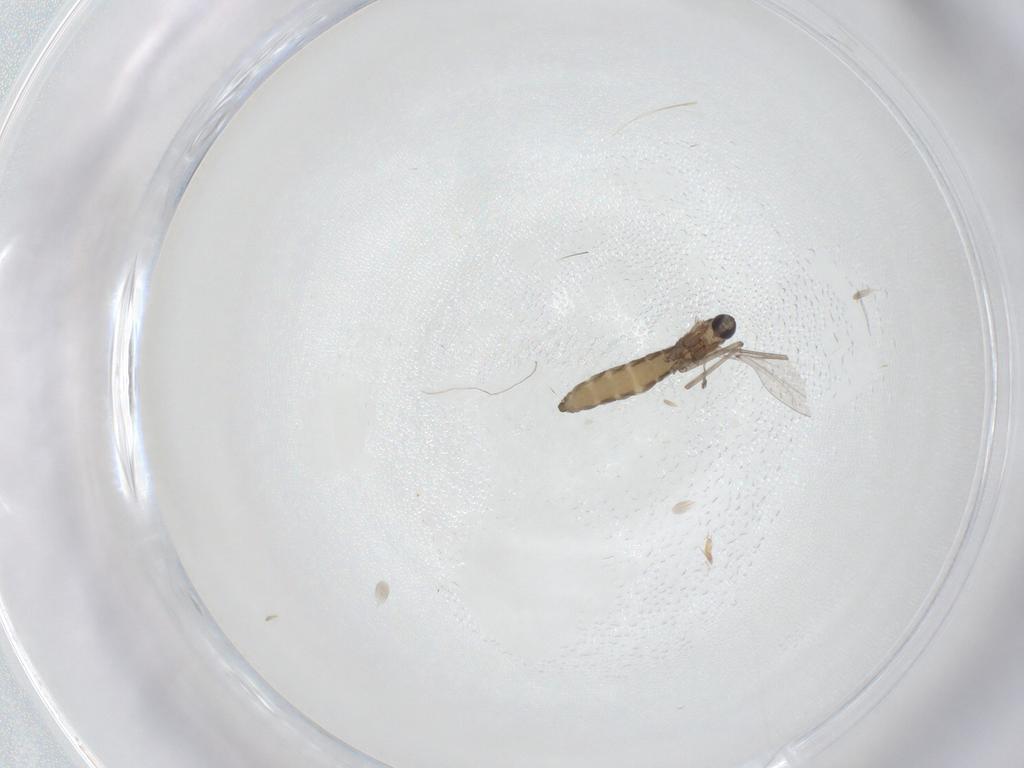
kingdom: Animalia
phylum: Arthropoda
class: Insecta
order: Diptera
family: Cecidomyiidae
